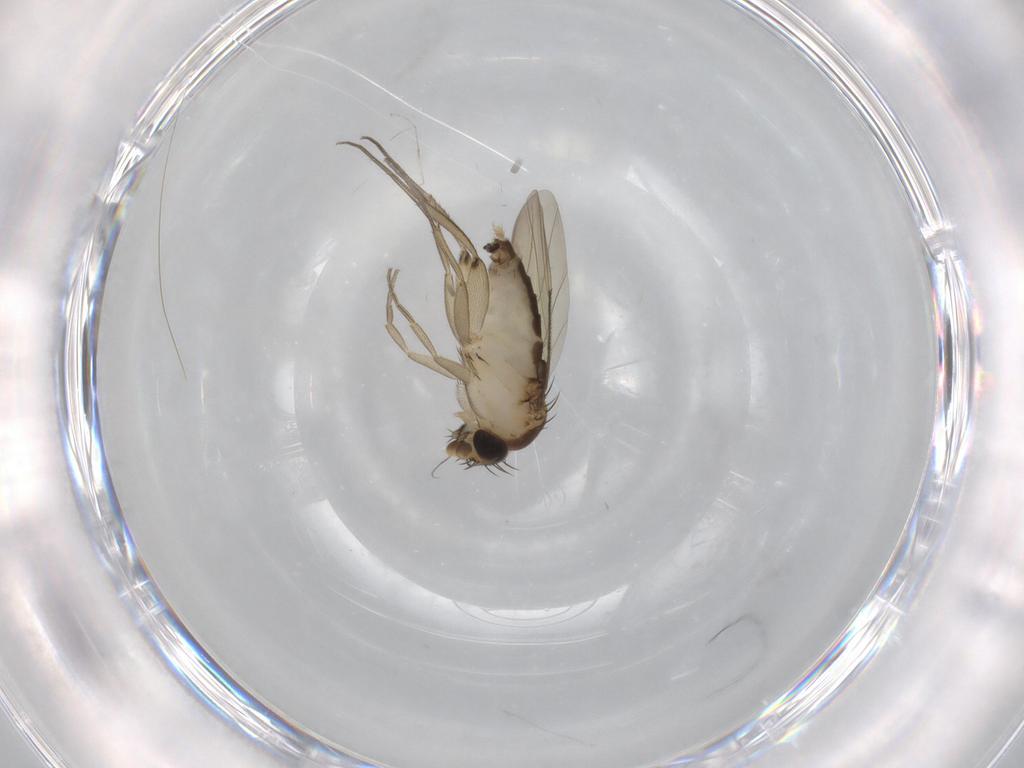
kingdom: Animalia
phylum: Arthropoda
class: Insecta
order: Diptera
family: Phoridae
